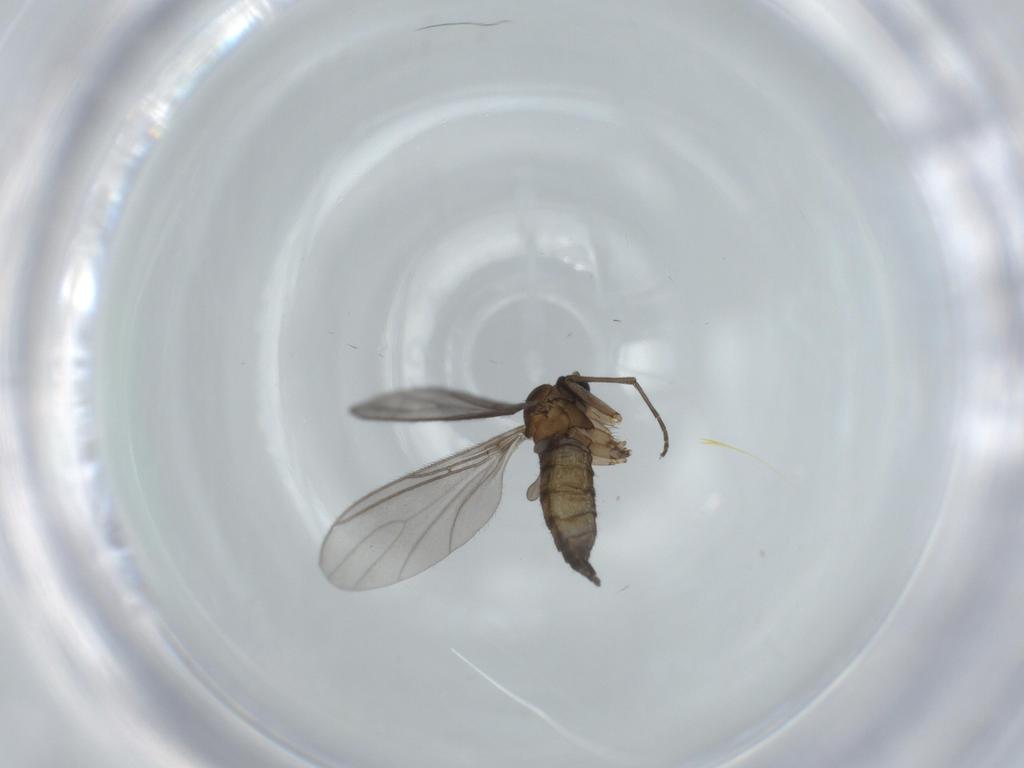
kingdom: Animalia
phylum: Arthropoda
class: Insecta
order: Diptera
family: Sciaridae
